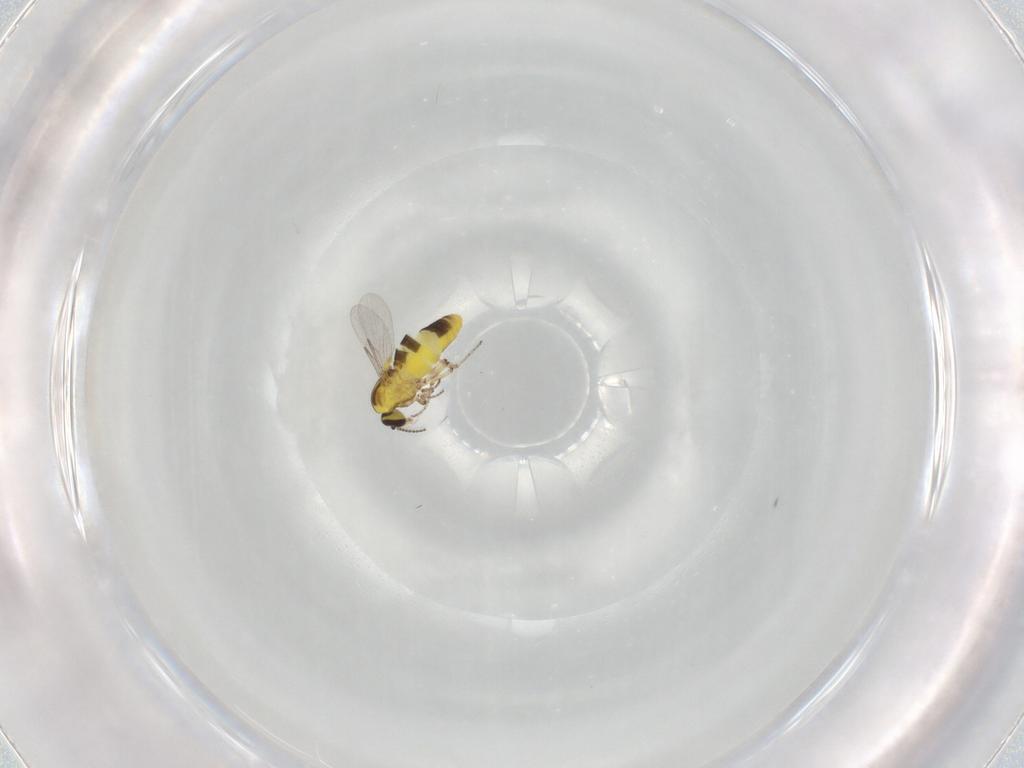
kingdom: Animalia
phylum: Arthropoda
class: Insecta
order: Diptera
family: Ceratopogonidae
